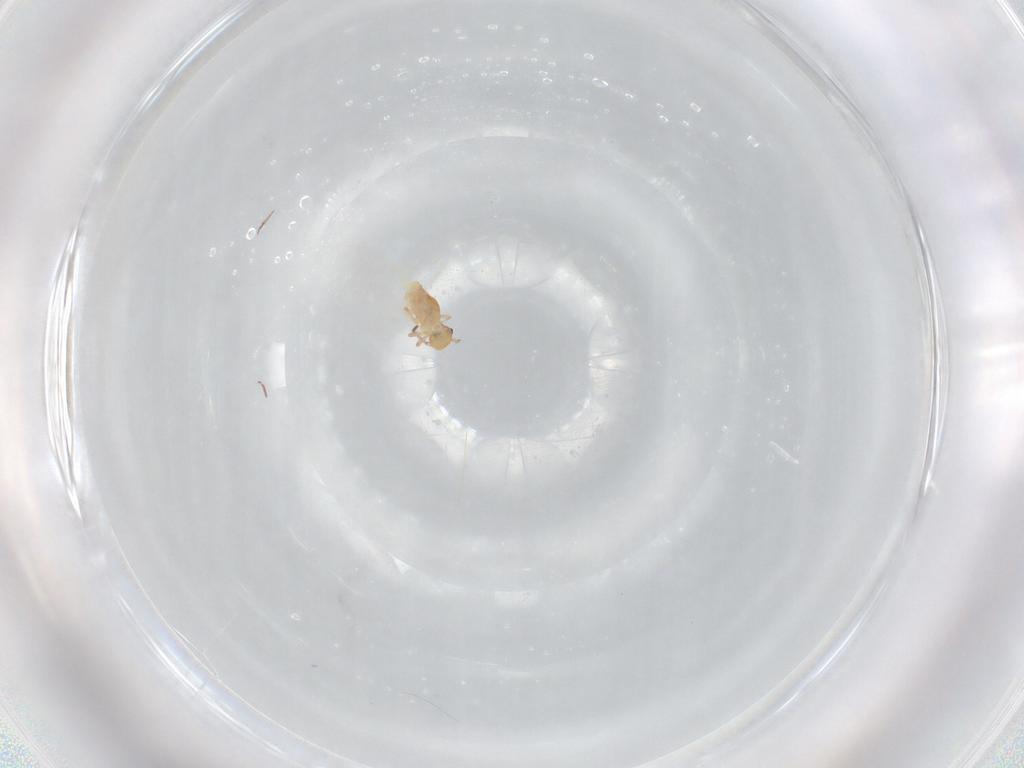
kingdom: Animalia
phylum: Arthropoda
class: Collembola
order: Symphypleona
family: Bourletiellidae
